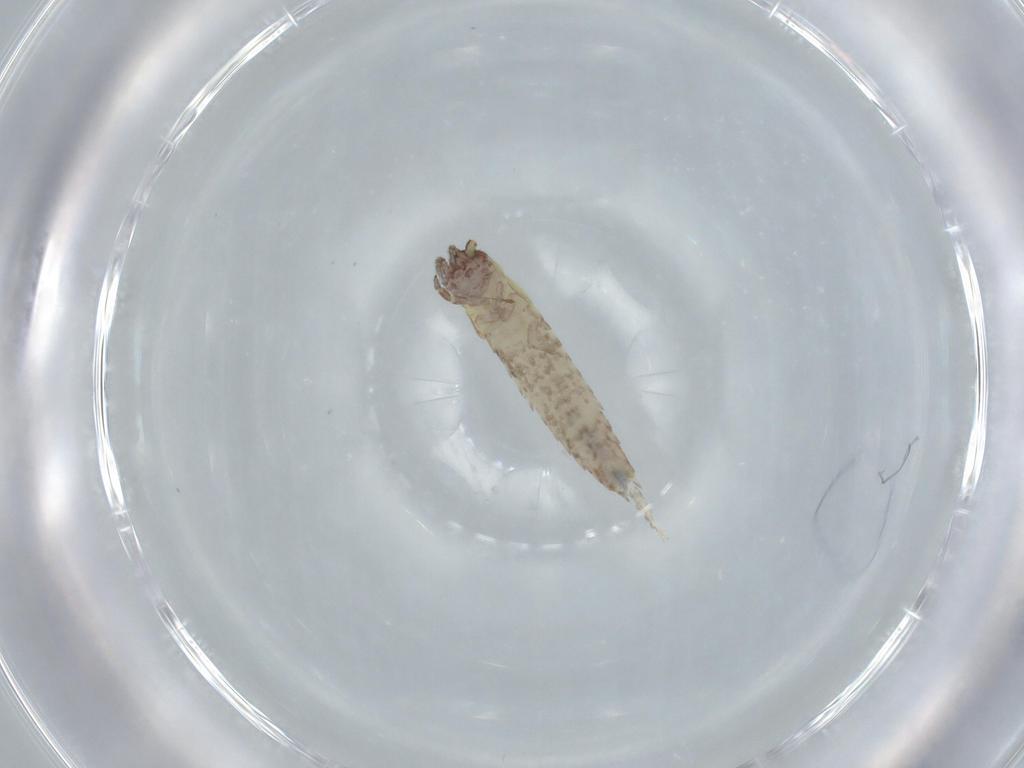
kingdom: Animalia
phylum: Arthropoda
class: Insecta
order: Archaeognatha
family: Machilidae
